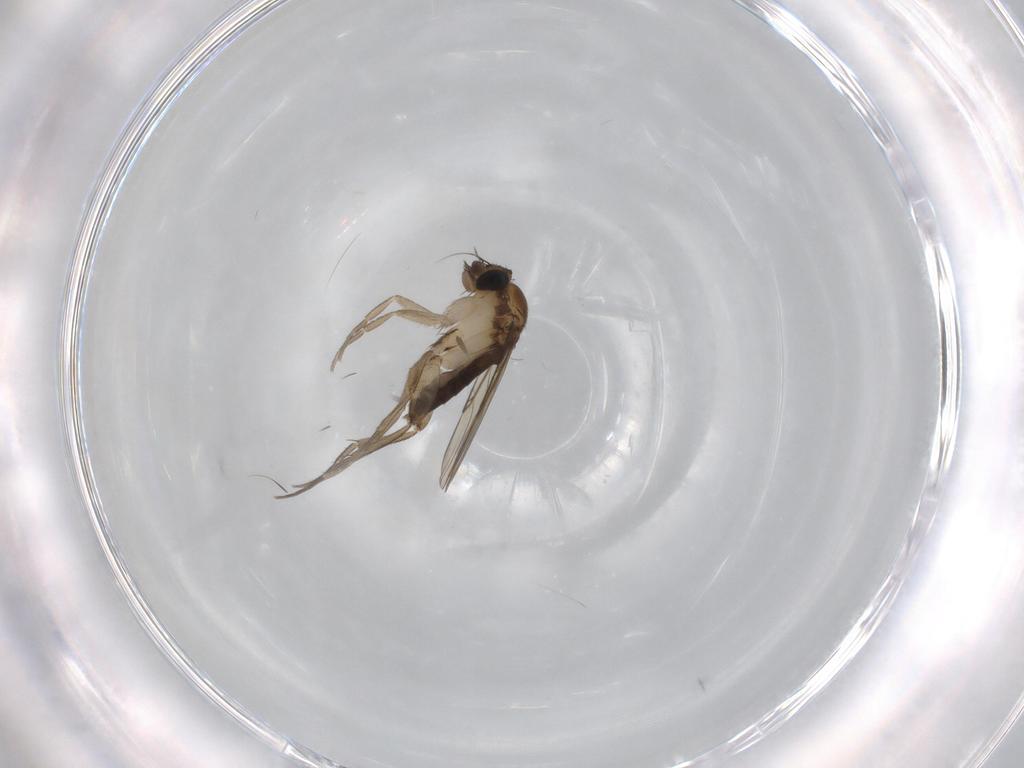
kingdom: Animalia
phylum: Arthropoda
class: Insecta
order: Diptera
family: Phoridae
